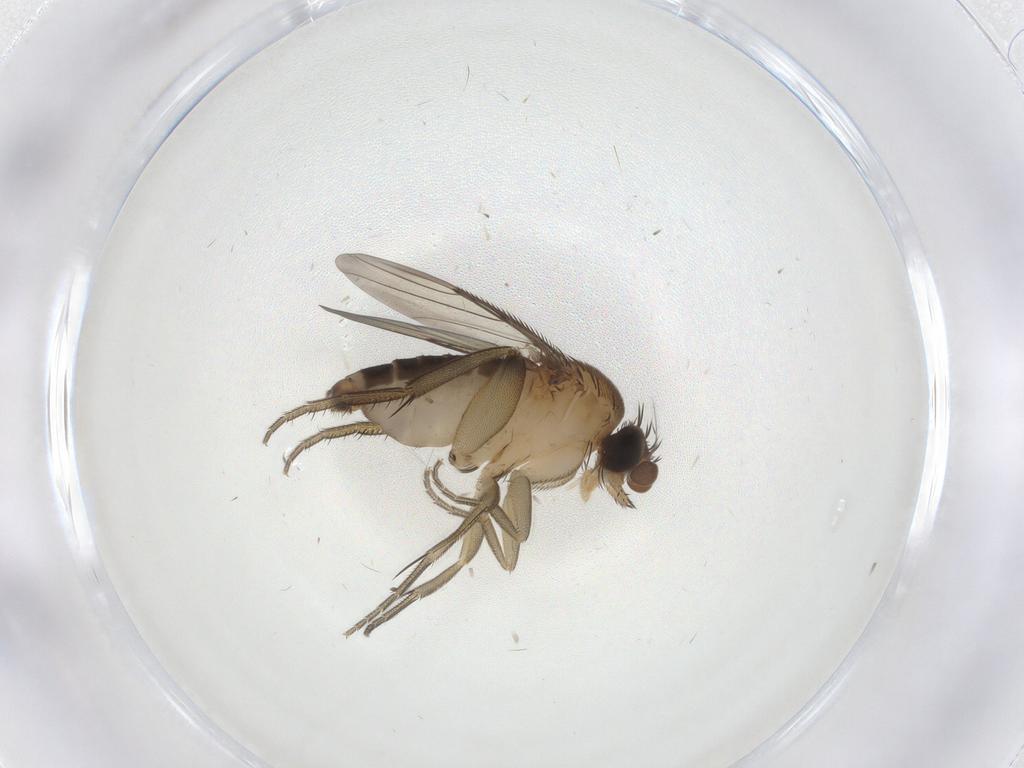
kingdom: Animalia
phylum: Arthropoda
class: Insecta
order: Diptera
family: Phoridae
